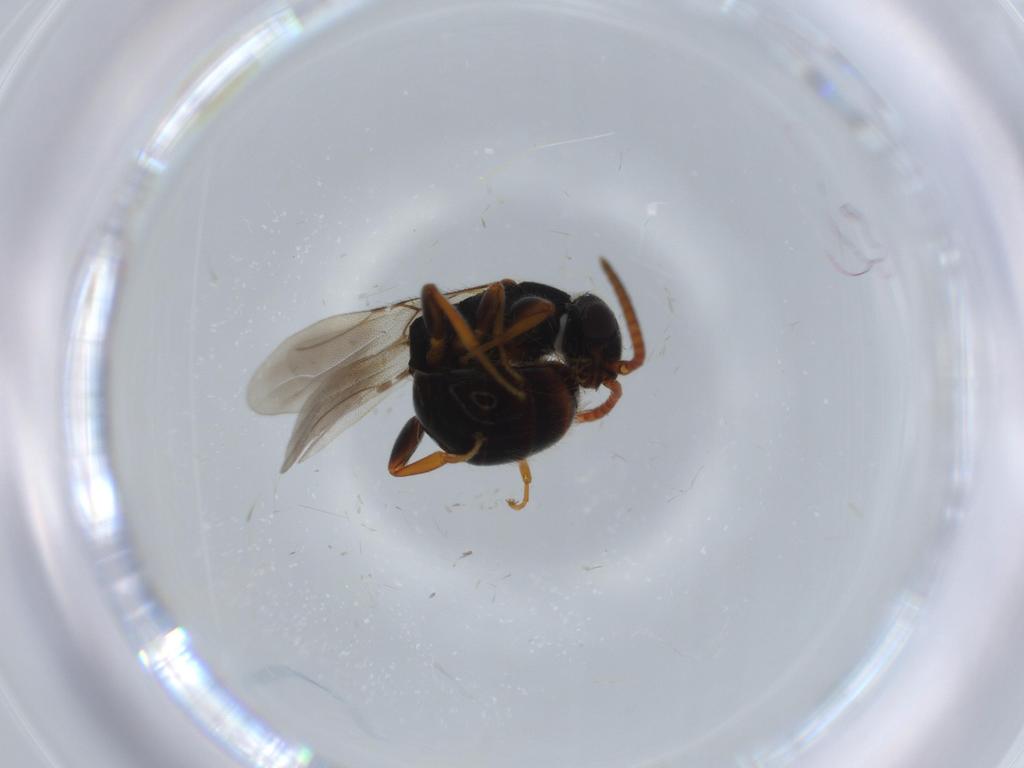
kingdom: Animalia
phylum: Arthropoda
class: Insecta
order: Hymenoptera
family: Bethylidae
